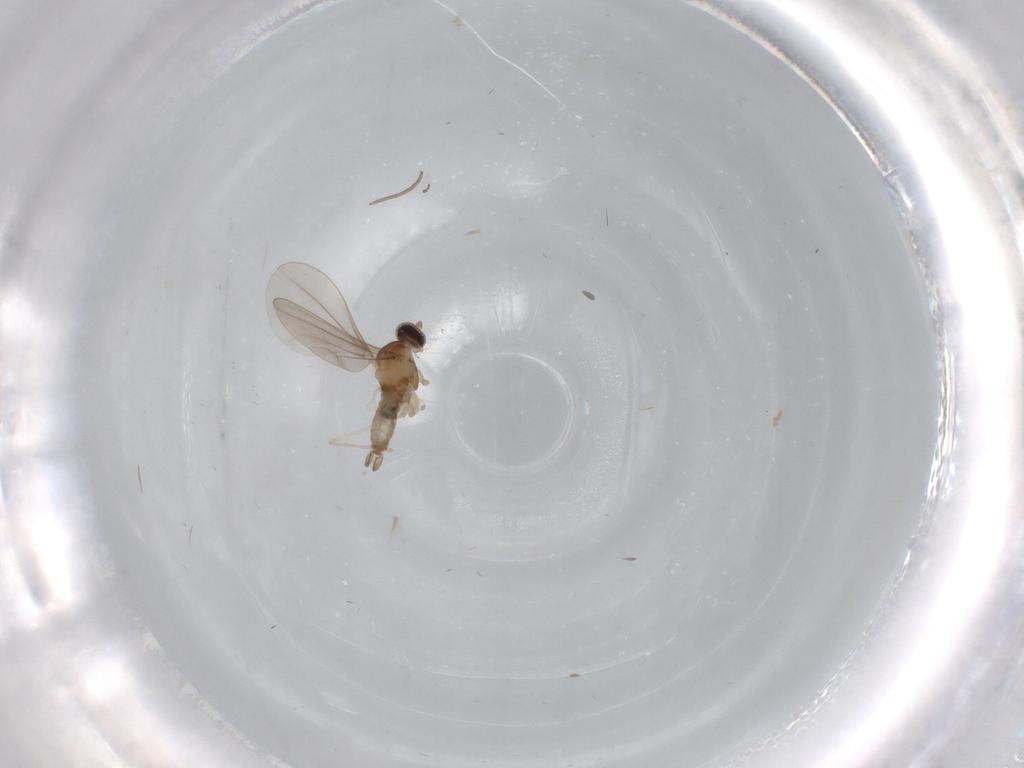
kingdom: Animalia
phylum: Arthropoda
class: Insecta
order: Diptera
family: Cecidomyiidae
